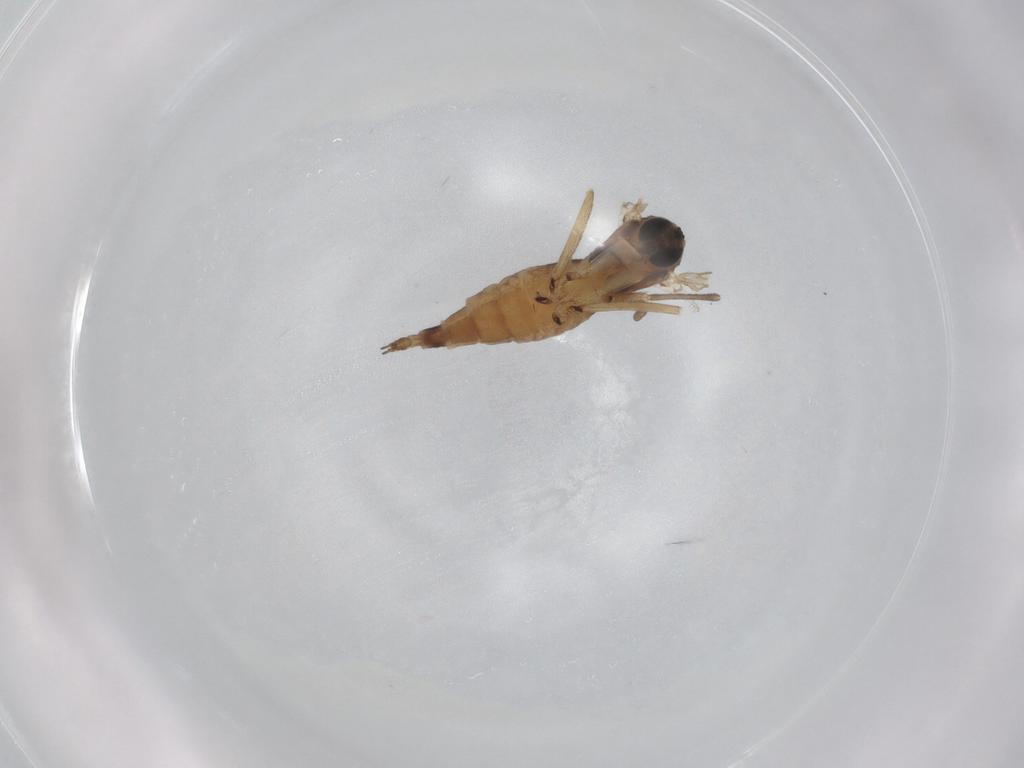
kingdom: Animalia
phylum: Arthropoda
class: Insecta
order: Diptera
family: Sciaridae
